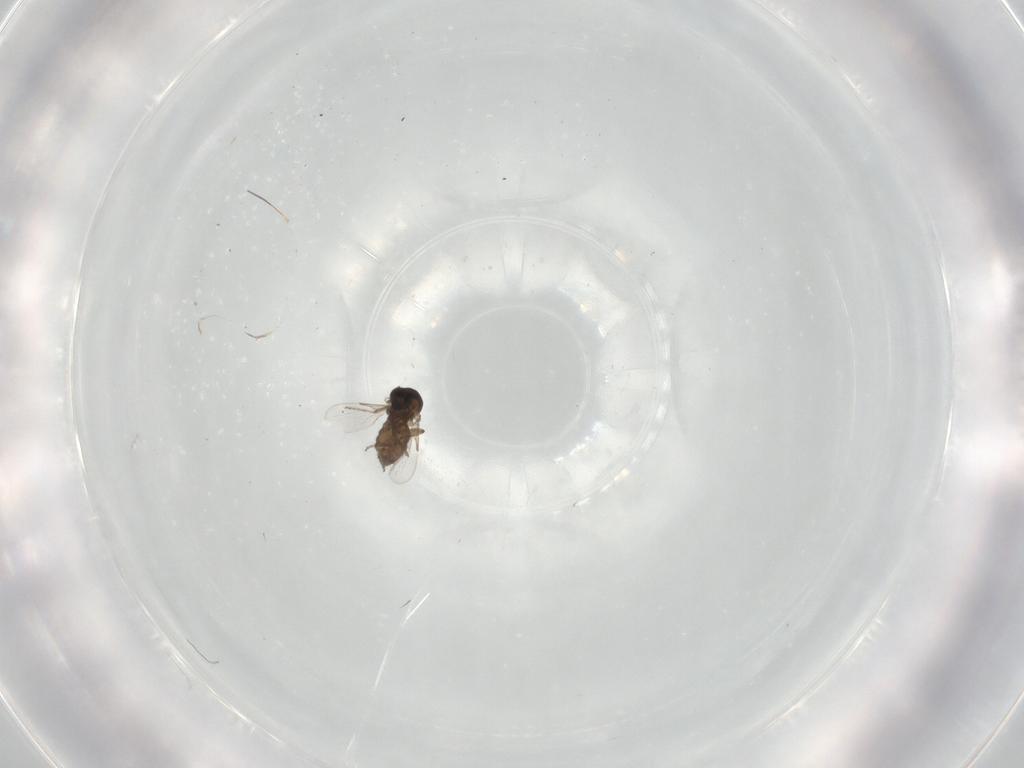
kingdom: Animalia
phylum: Arthropoda
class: Insecta
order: Diptera
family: Ceratopogonidae
